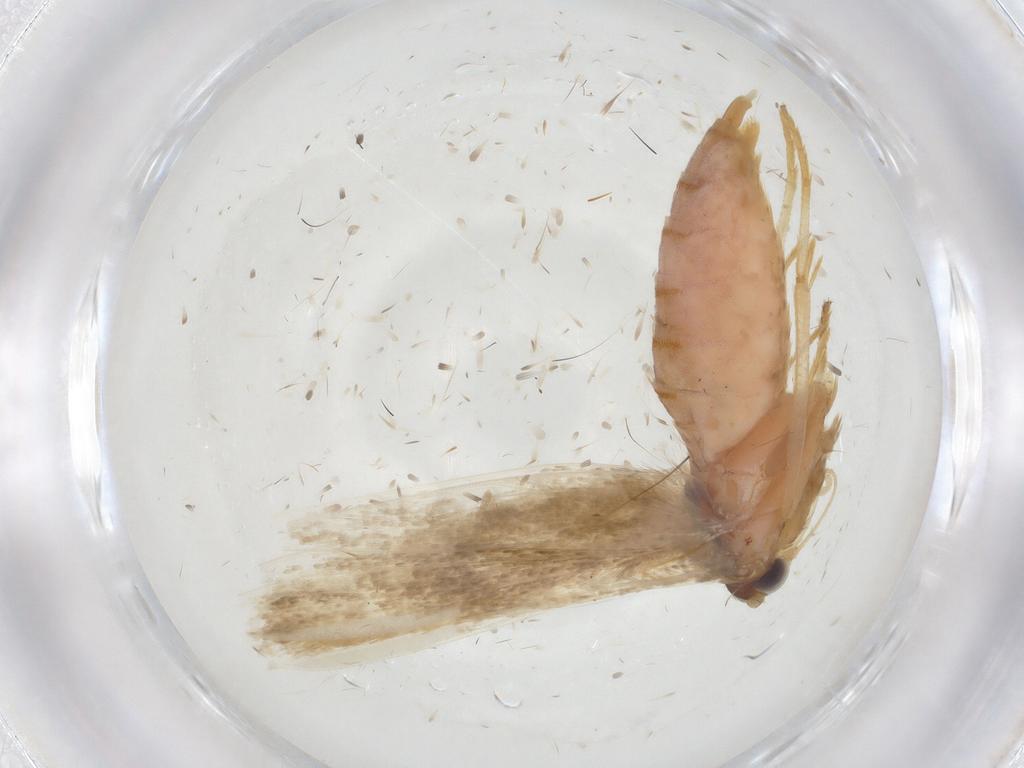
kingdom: Animalia
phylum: Arthropoda
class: Insecta
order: Lepidoptera
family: Blastobasidae
